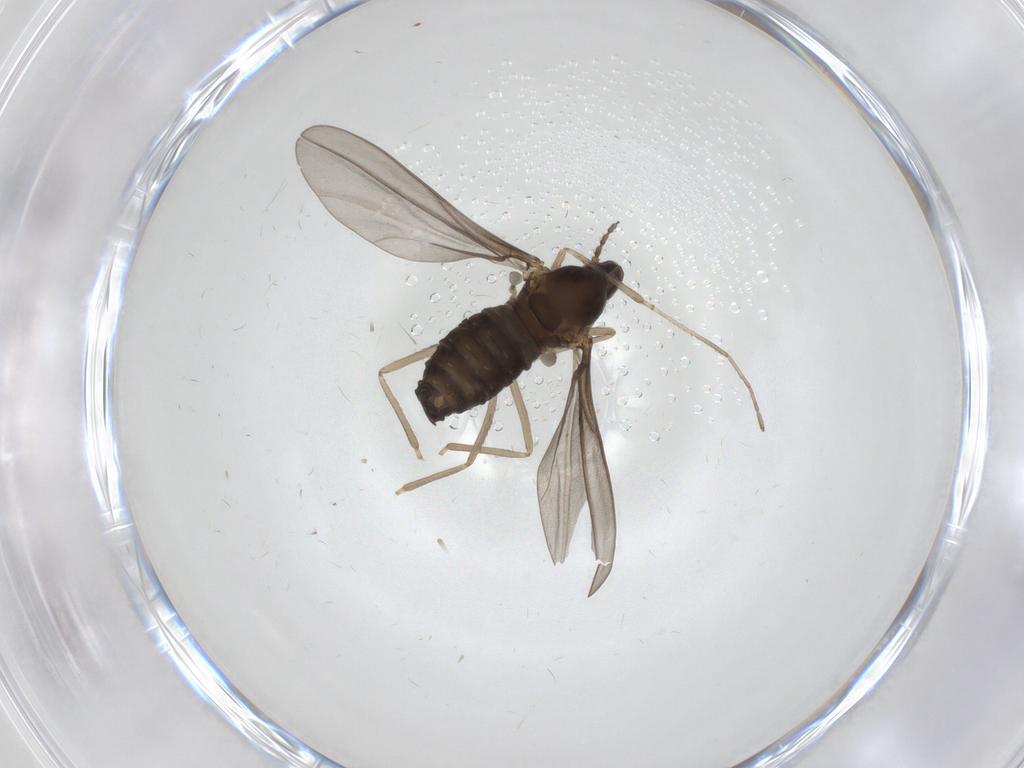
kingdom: Animalia
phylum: Arthropoda
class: Insecta
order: Diptera
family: Cecidomyiidae
